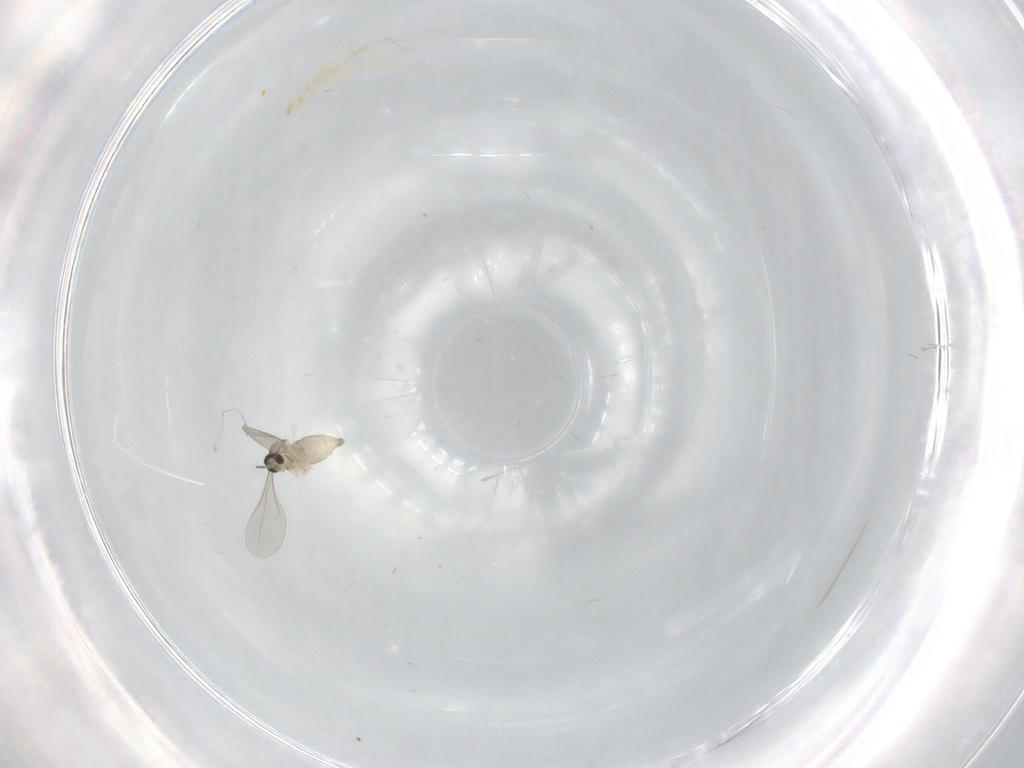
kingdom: Animalia
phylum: Arthropoda
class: Insecta
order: Diptera
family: Cecidomyiidae
